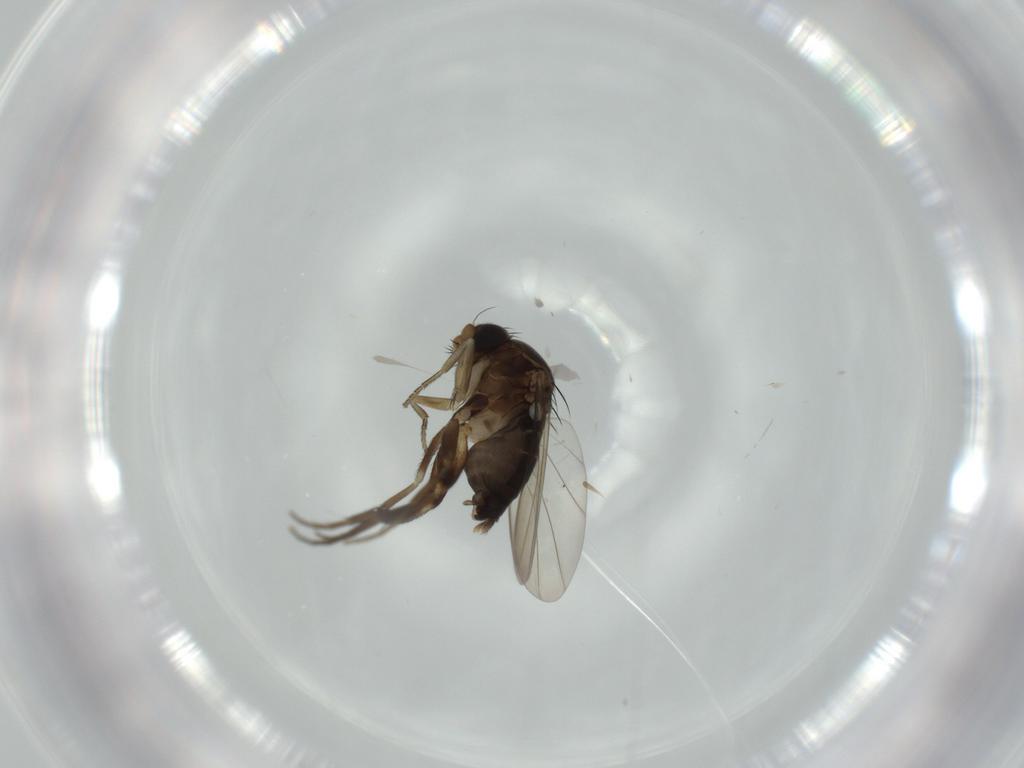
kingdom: Animalia
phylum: Arthropoda
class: Insecta
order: Diptera
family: Phoridae
